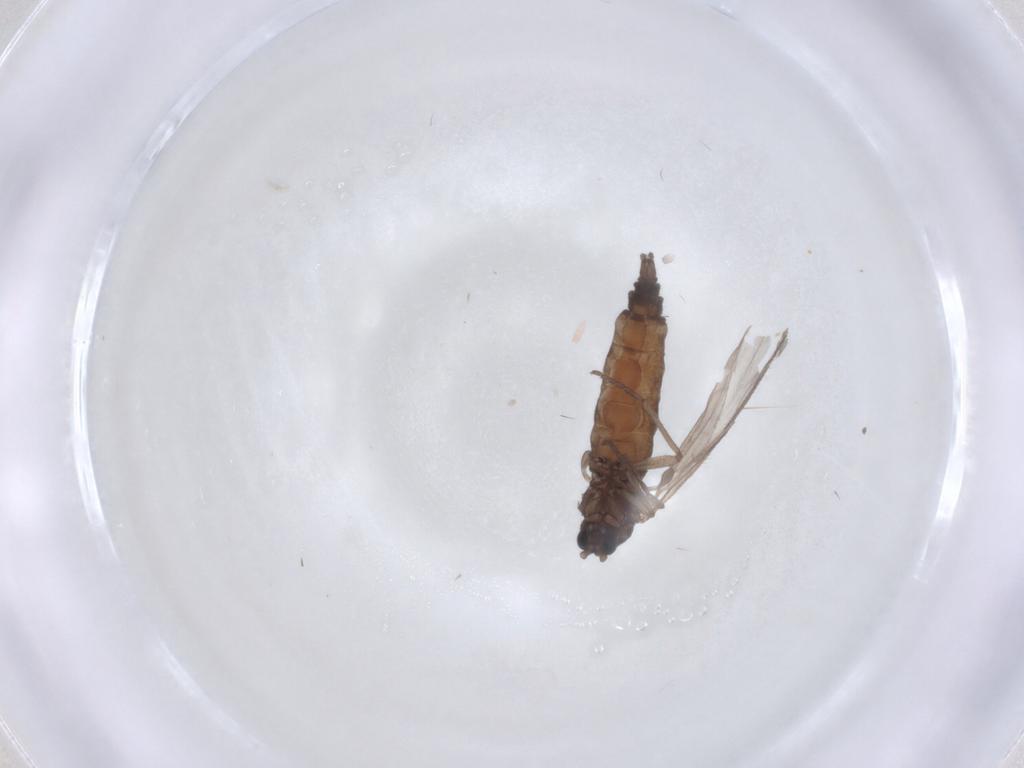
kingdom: Animalia
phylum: Arthropoda
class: Insecta
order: Diptera
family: Sciaridae
